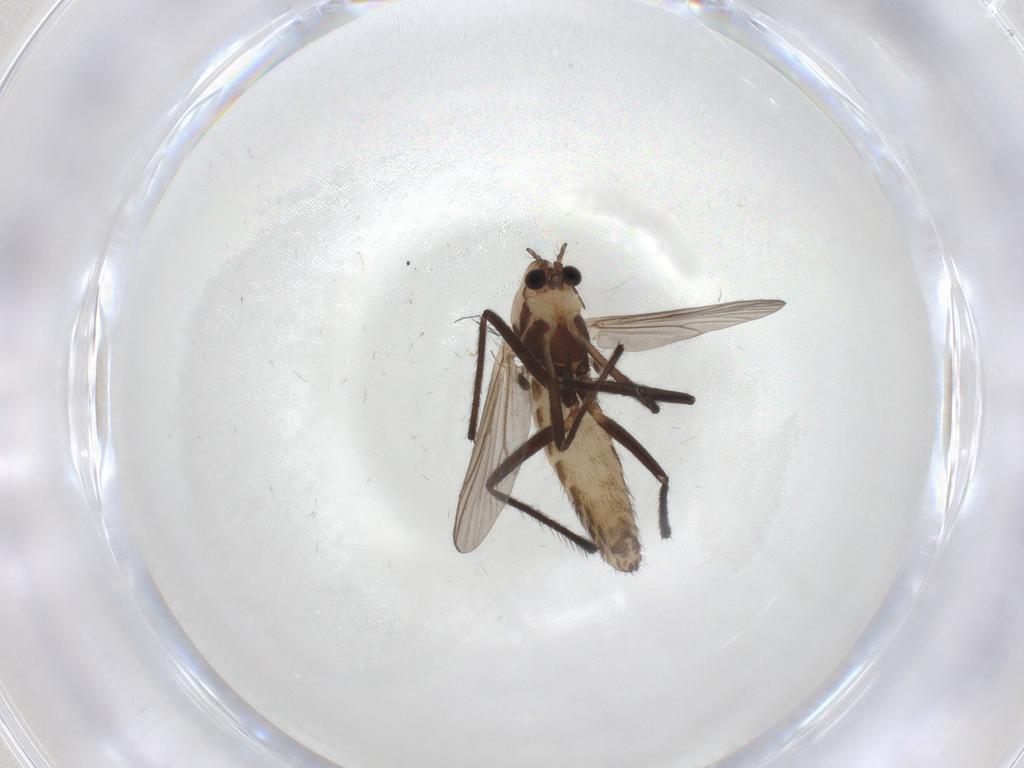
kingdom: Animalia
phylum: Arthropoda
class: Insecta
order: Diptera
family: Chironomidae
